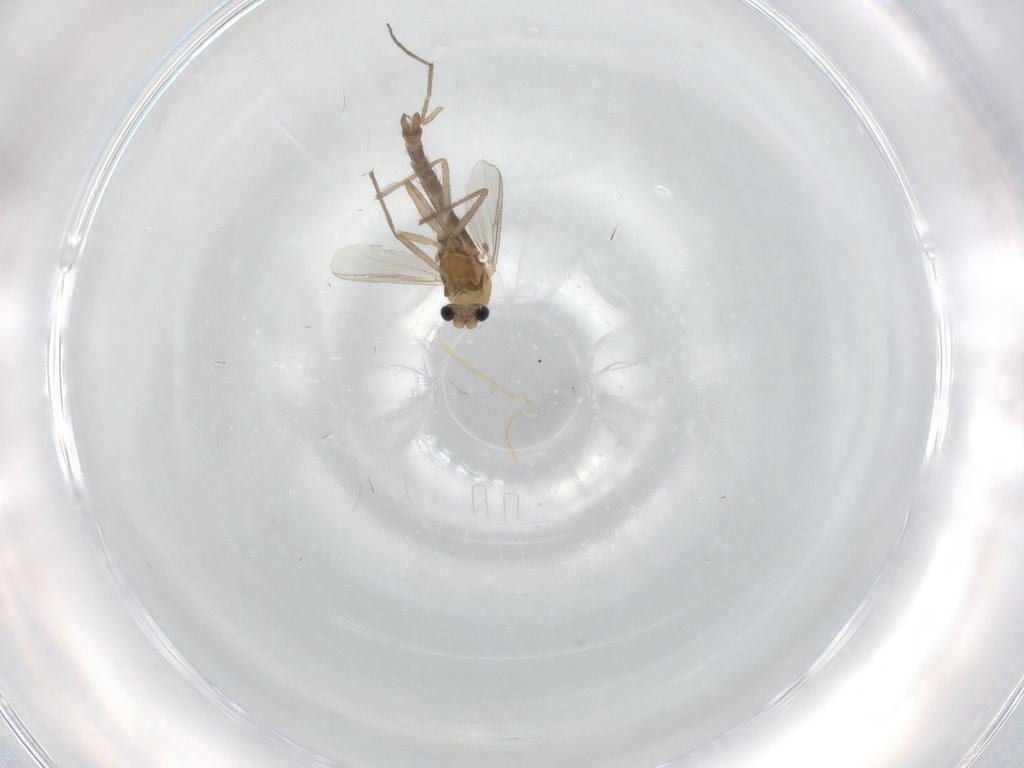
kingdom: Animalia
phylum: Arthropoda
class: Insecta
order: Diptera
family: Chironomidae
